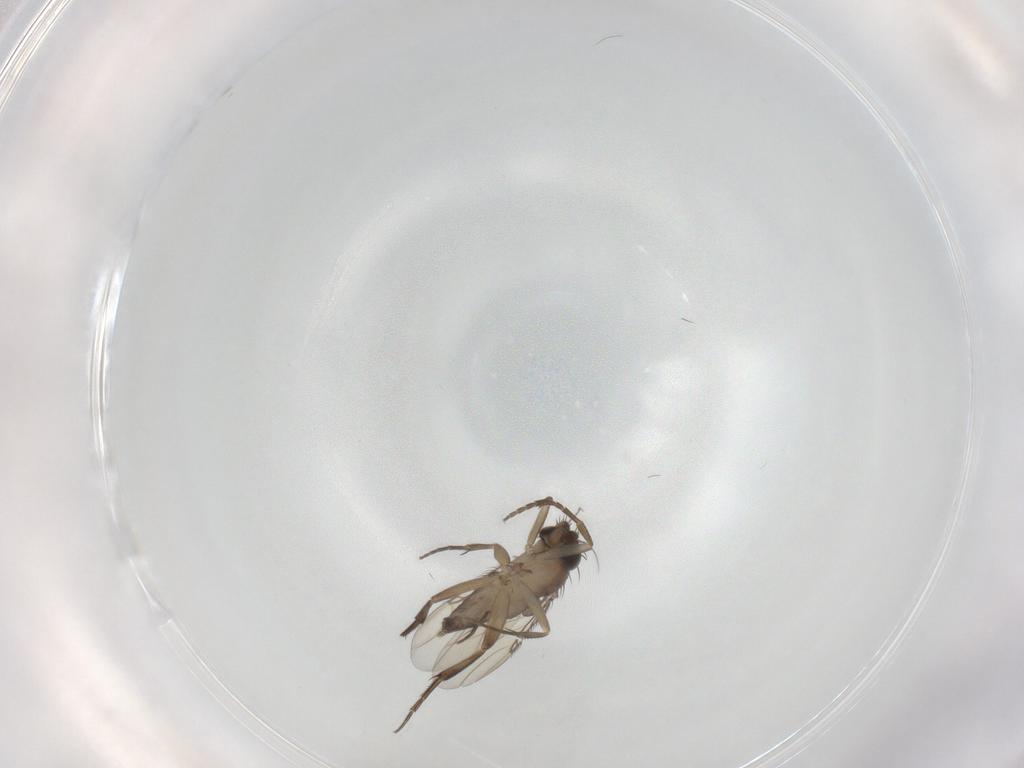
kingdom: Animalia
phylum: Arthropoda
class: Insecta
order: Diptera
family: Phoridae
